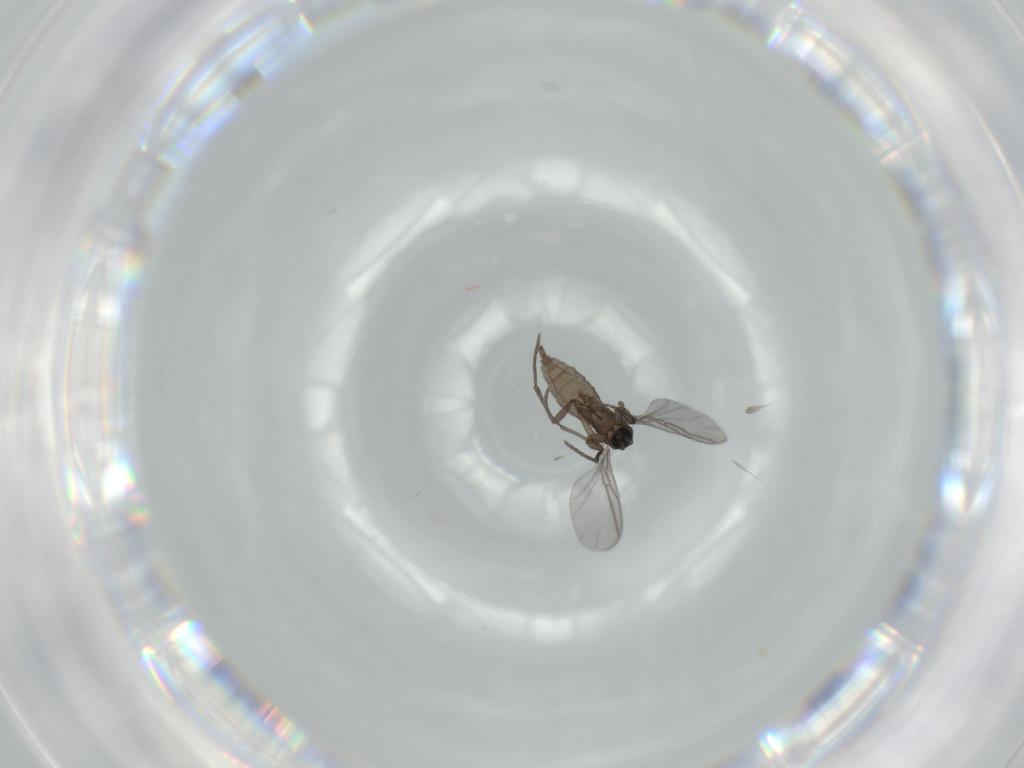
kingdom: Animalia
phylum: Arthropoda
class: Insecta
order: Diptera
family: Sciaridae
